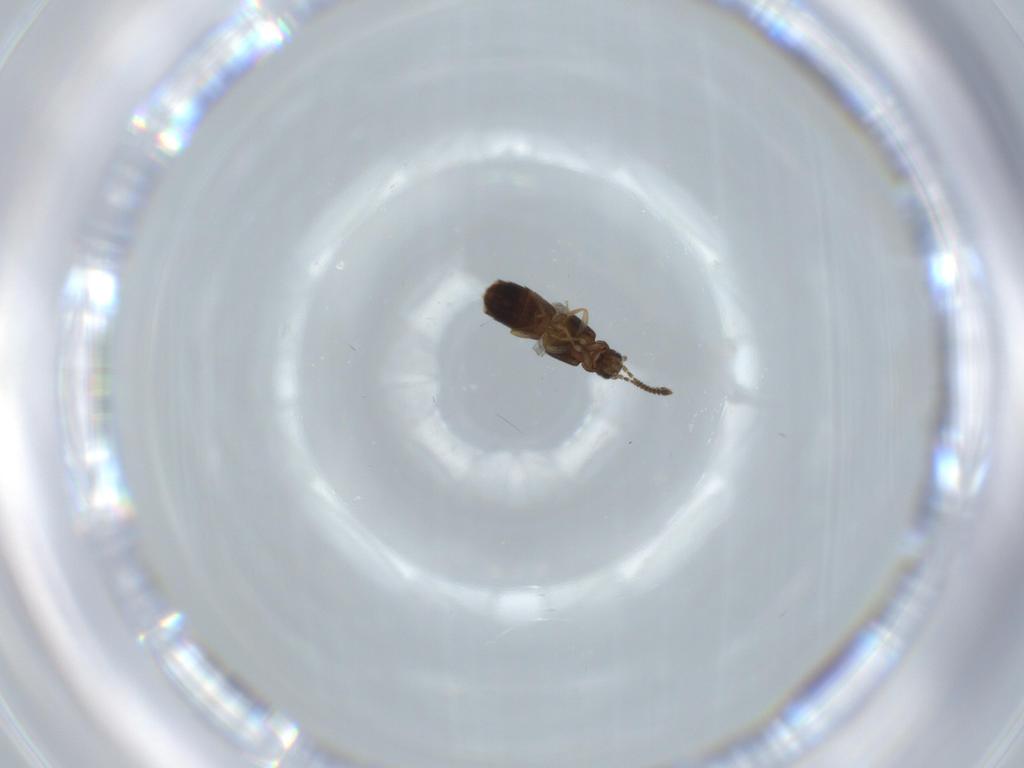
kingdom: Animalia
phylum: Arthropoda
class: Insecta
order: Coleoptera
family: Staphylinidae
